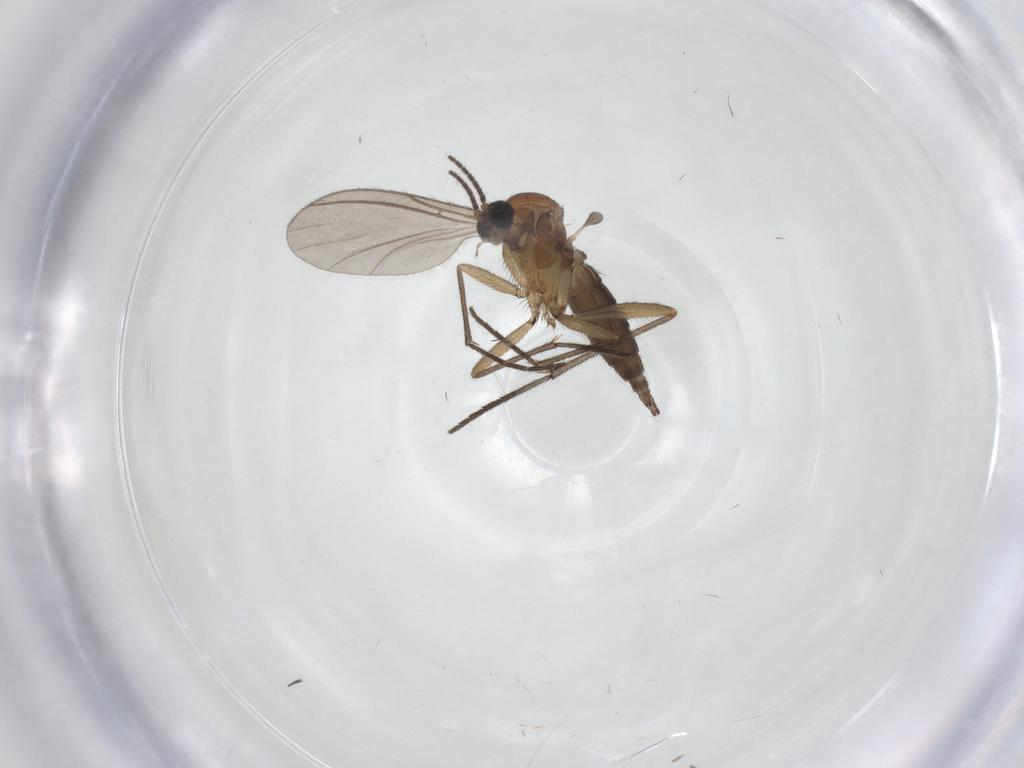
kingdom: Animalia
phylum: Arthropoda
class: Insecta
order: Diptera
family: Sciaridae
